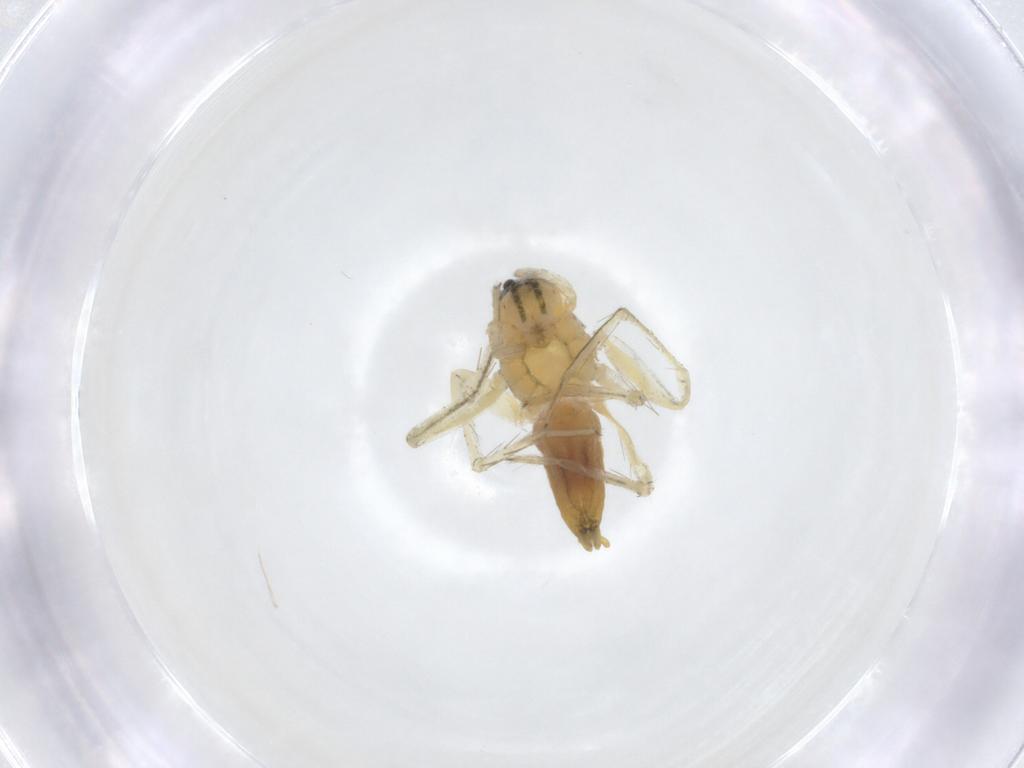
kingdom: Animalia
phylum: Arthropoda
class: Arachnida
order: Araneae
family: Oxyopidae
